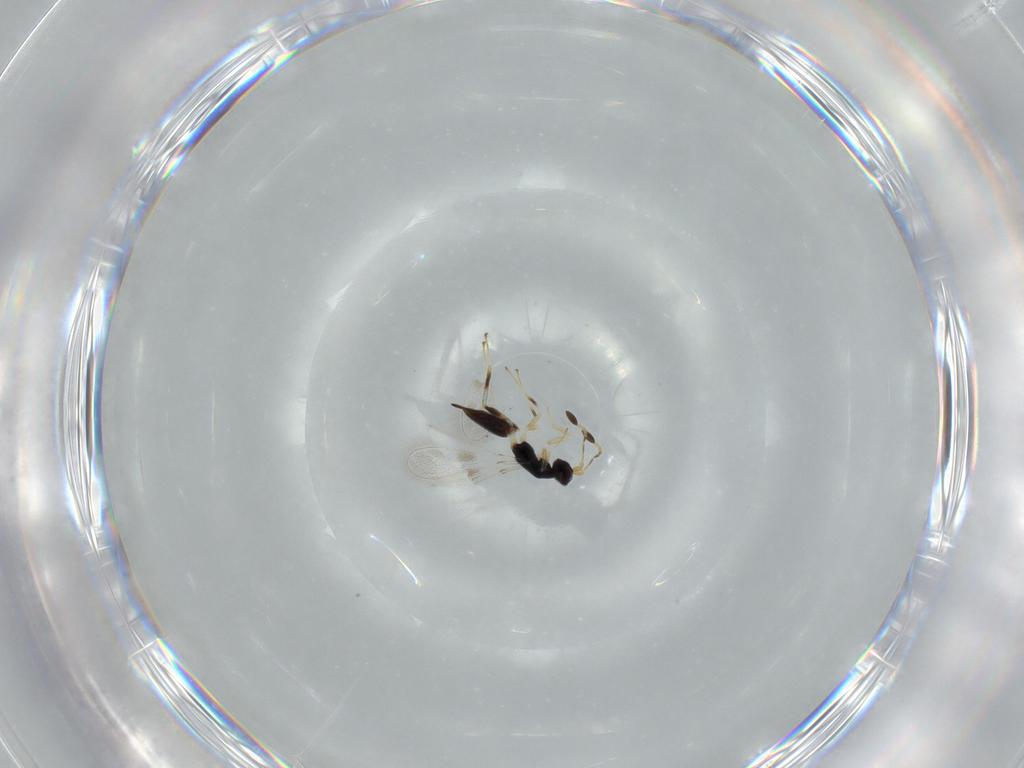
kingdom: Animalia
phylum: Arthropoda
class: Insecta
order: Hymenoptera
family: Mymaridae
